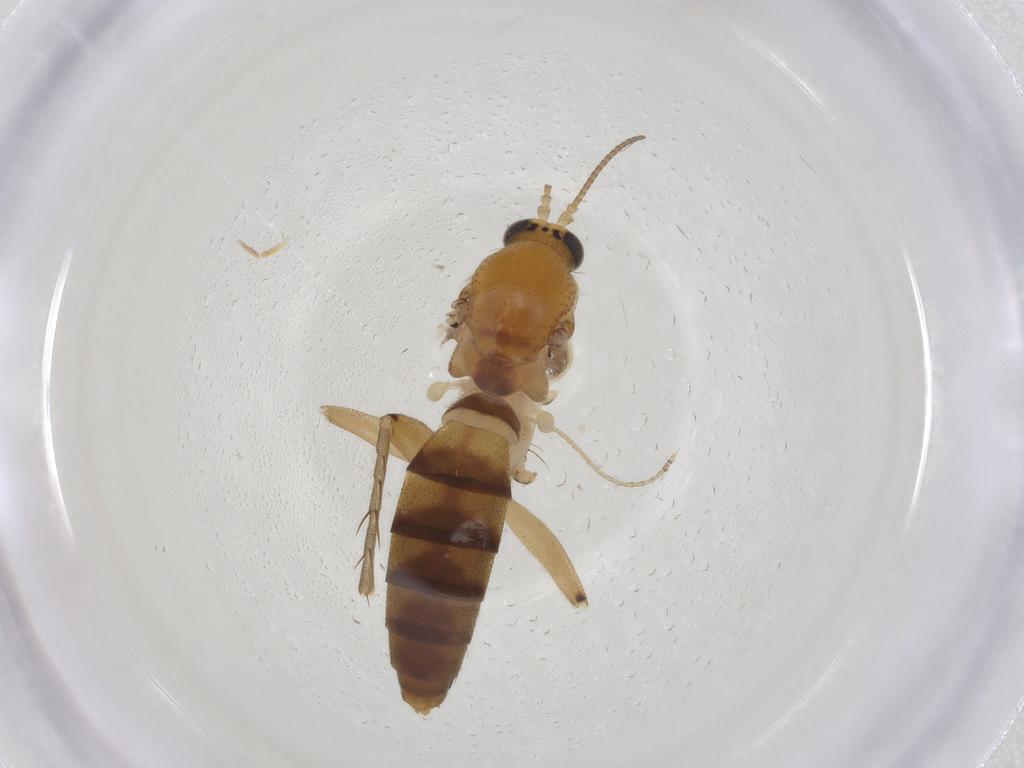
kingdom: Animalia
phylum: Arthropoda
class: Insecta
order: Diptera
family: Mycetophilidae
